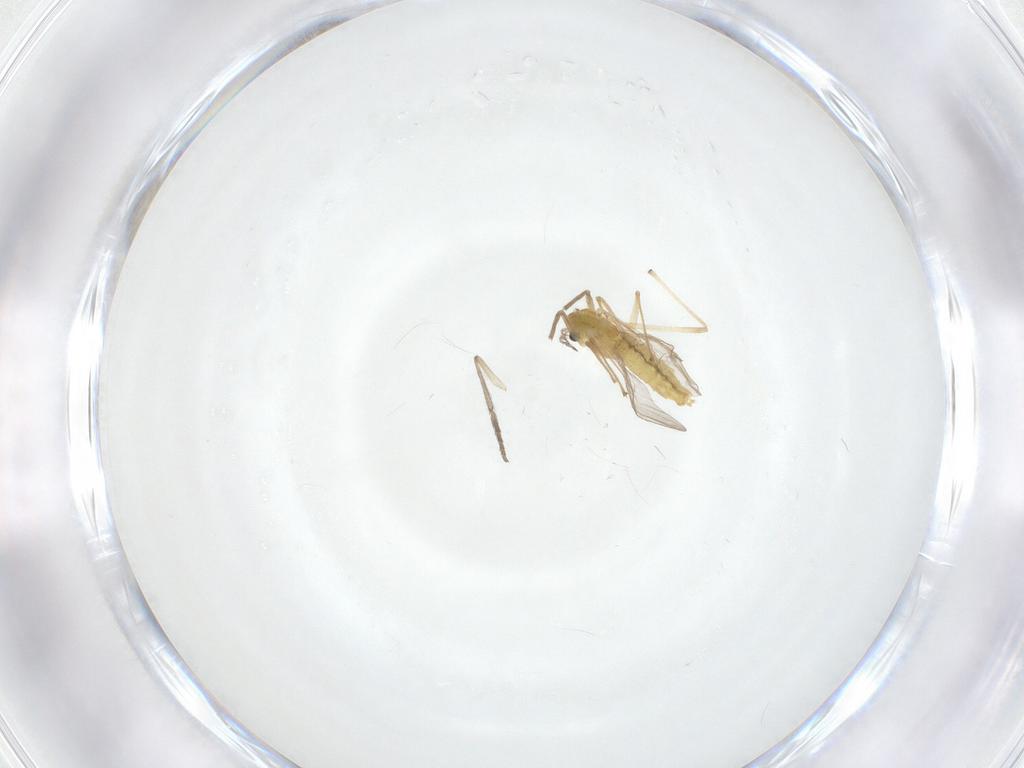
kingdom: Animalia
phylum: Arthropoda
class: Insecta
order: Diptera
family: Chironomidae
